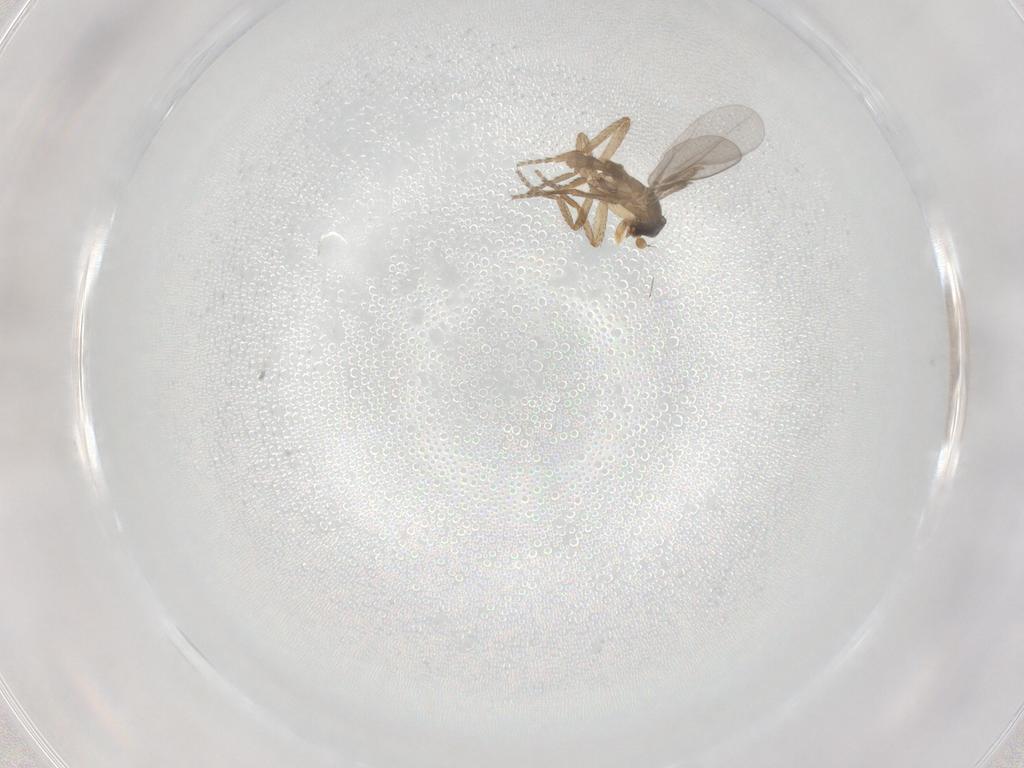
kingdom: Animalia
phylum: Arthropoda
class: Insecta
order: Diptera
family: Phoridae
